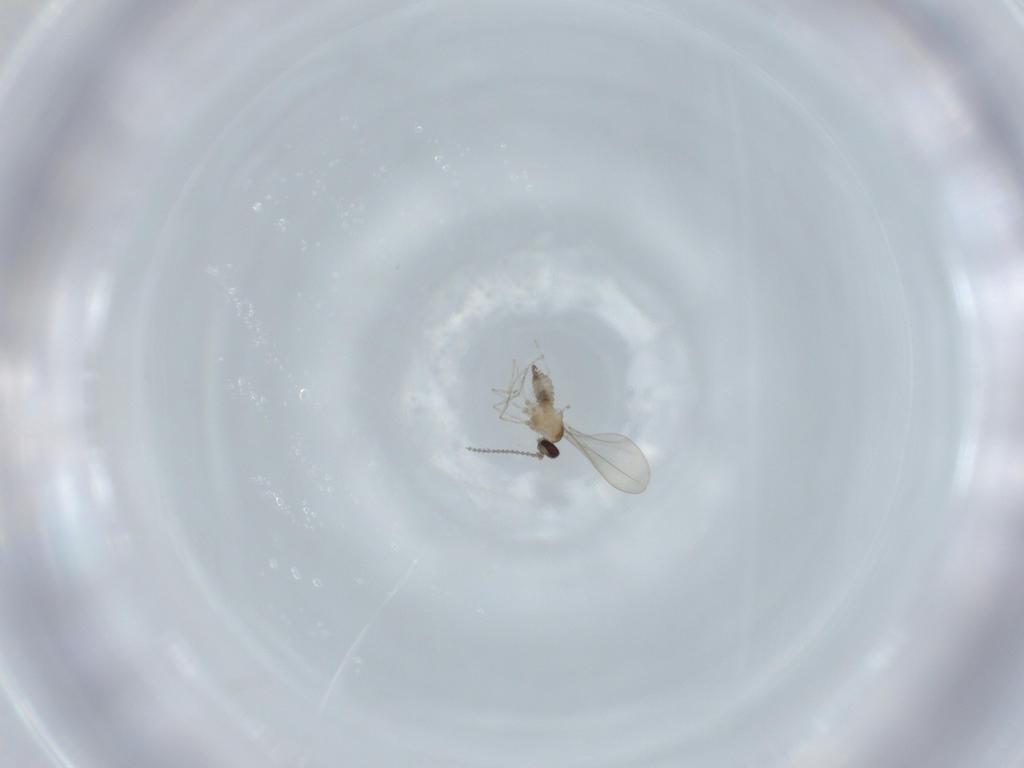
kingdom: Animalia
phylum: Arthropoda
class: Insecta
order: Diptera
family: Cecidomyiidae
